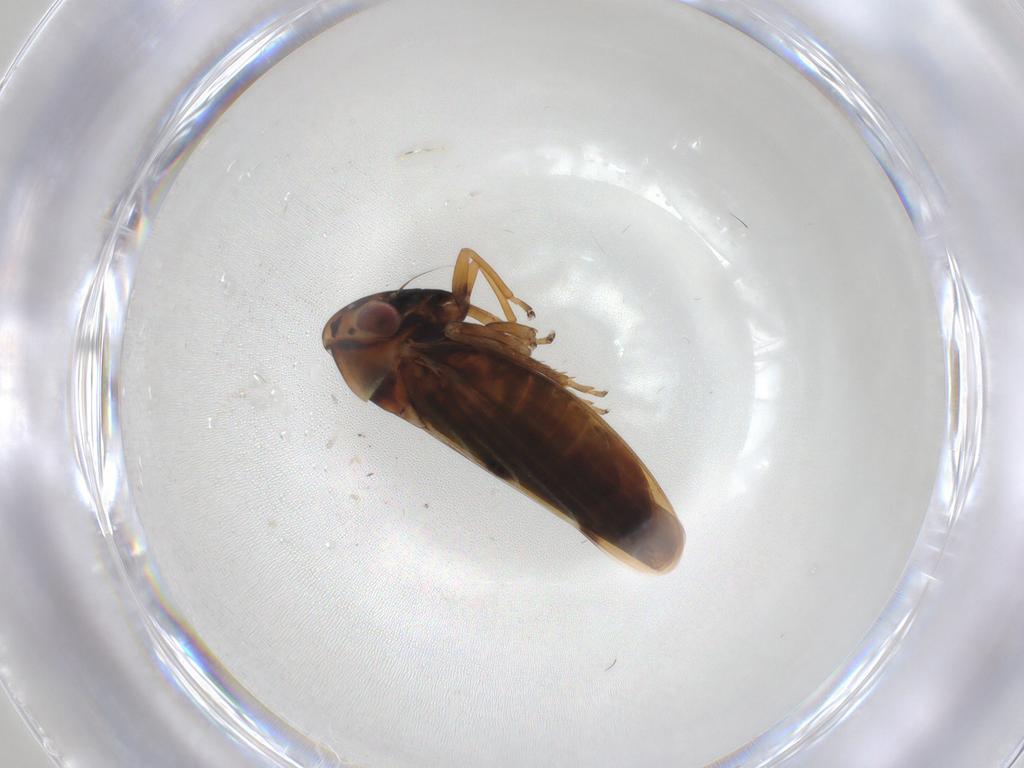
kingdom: Animalia
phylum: Arthropoda
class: Insecta
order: Hemiptera
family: Cicadellidae
